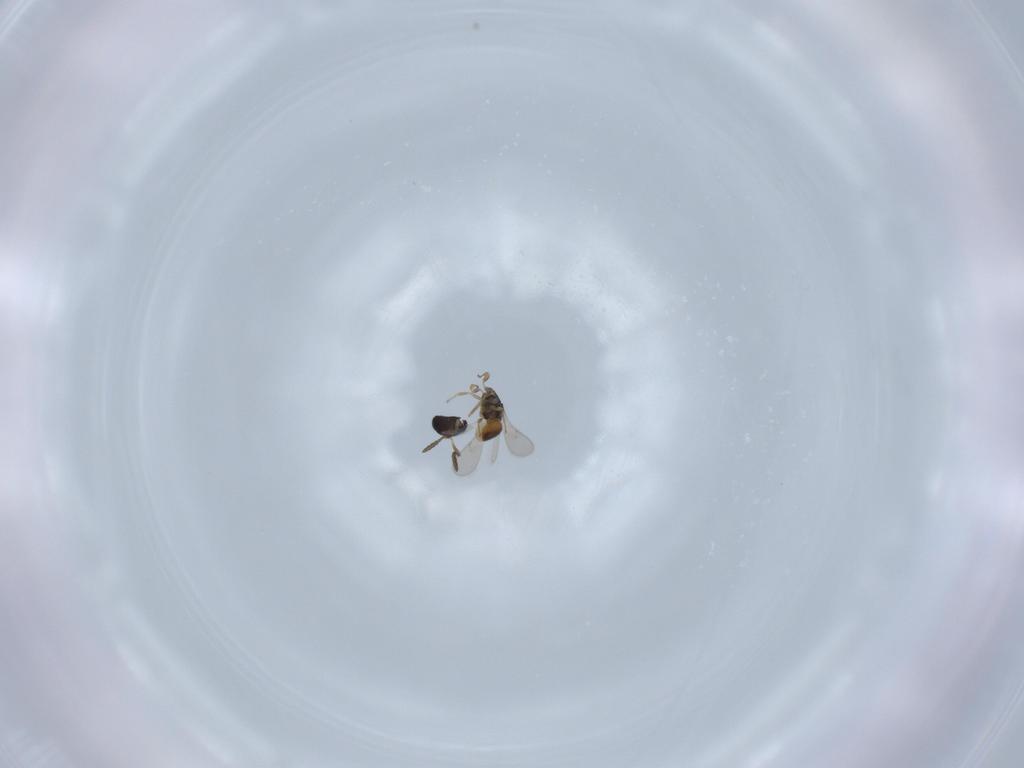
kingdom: Animalia
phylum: Arthropoda
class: Insecta
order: Hymenoptera
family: Scelionidae
